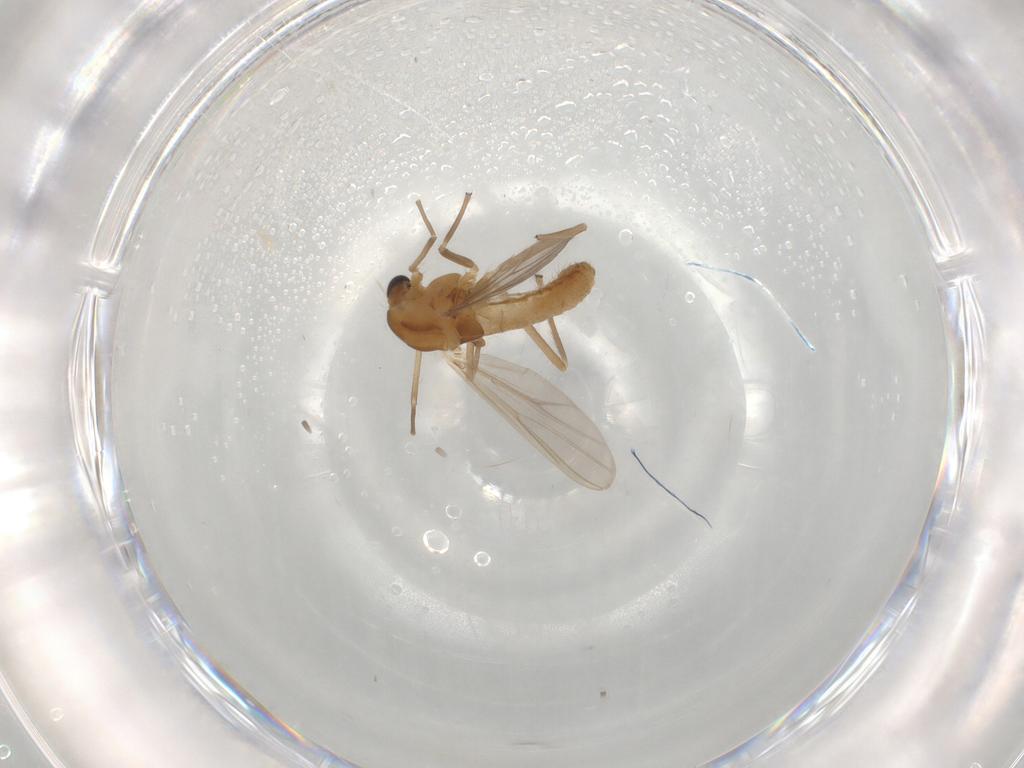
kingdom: Animalia
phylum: Arthropoda
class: Insecta
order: Diptera
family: Chironomidae
